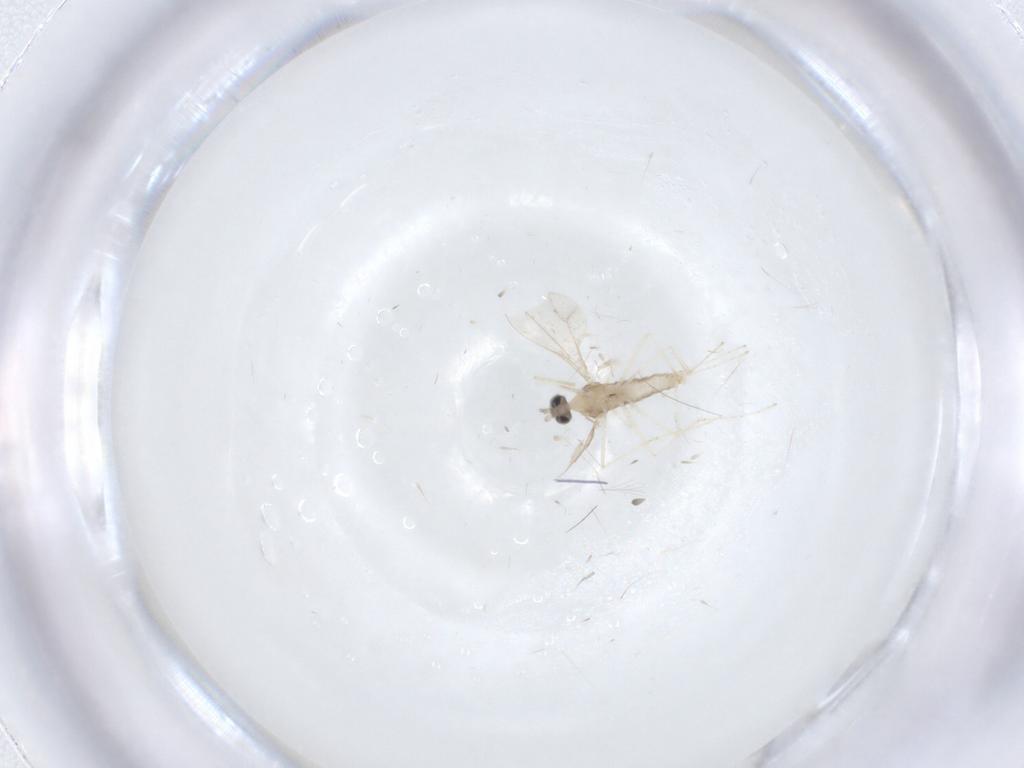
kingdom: Animalia
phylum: Arthropoda
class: Insecta
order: Diptera
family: Cecidomyiidae
